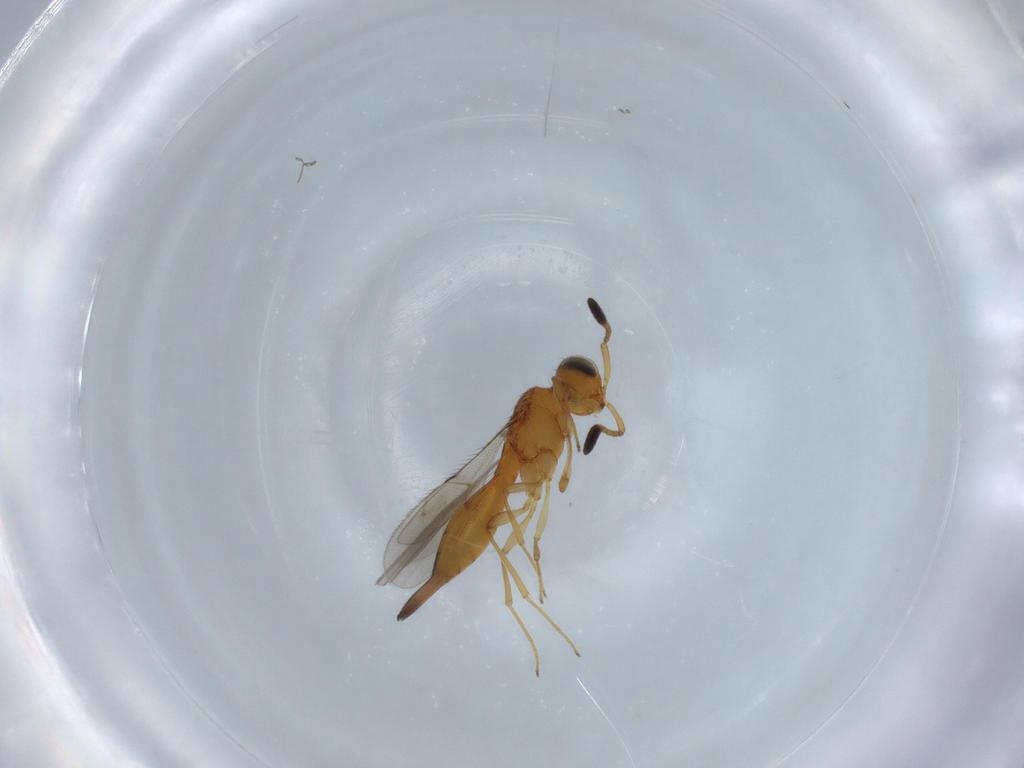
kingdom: Animalia
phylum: Arthropoda
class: Insecta
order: Hymenoptera
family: Scelionidae
